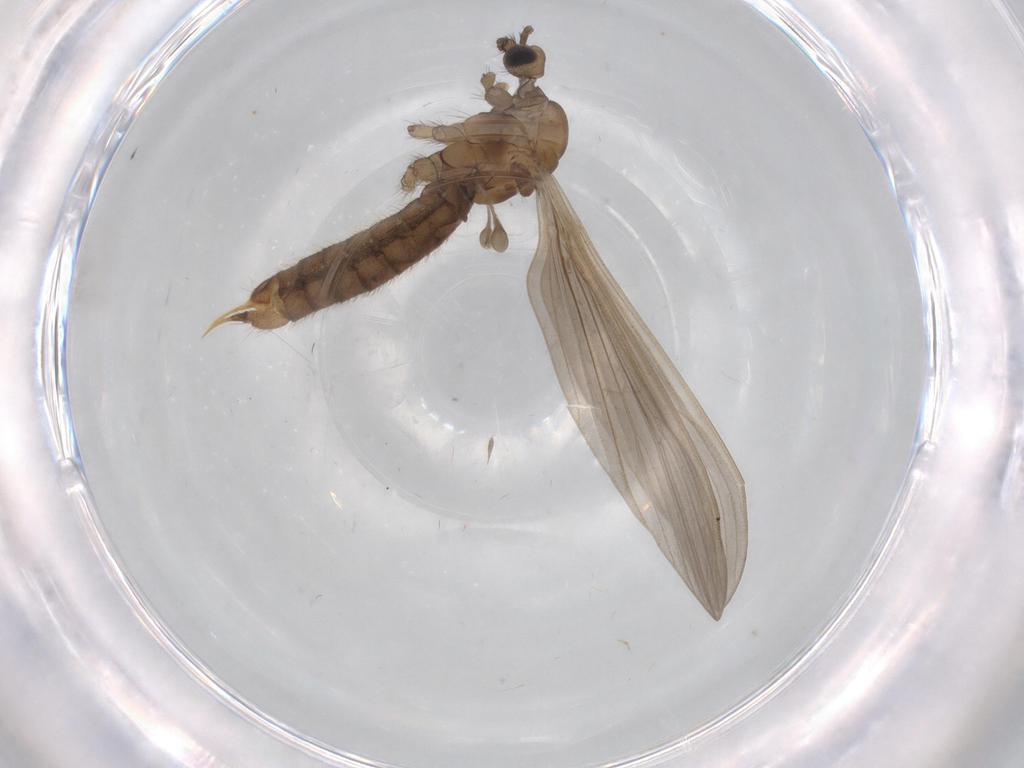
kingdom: Animalia
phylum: Arthropoda
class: Insecta
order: Diptera
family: Limoniidae
